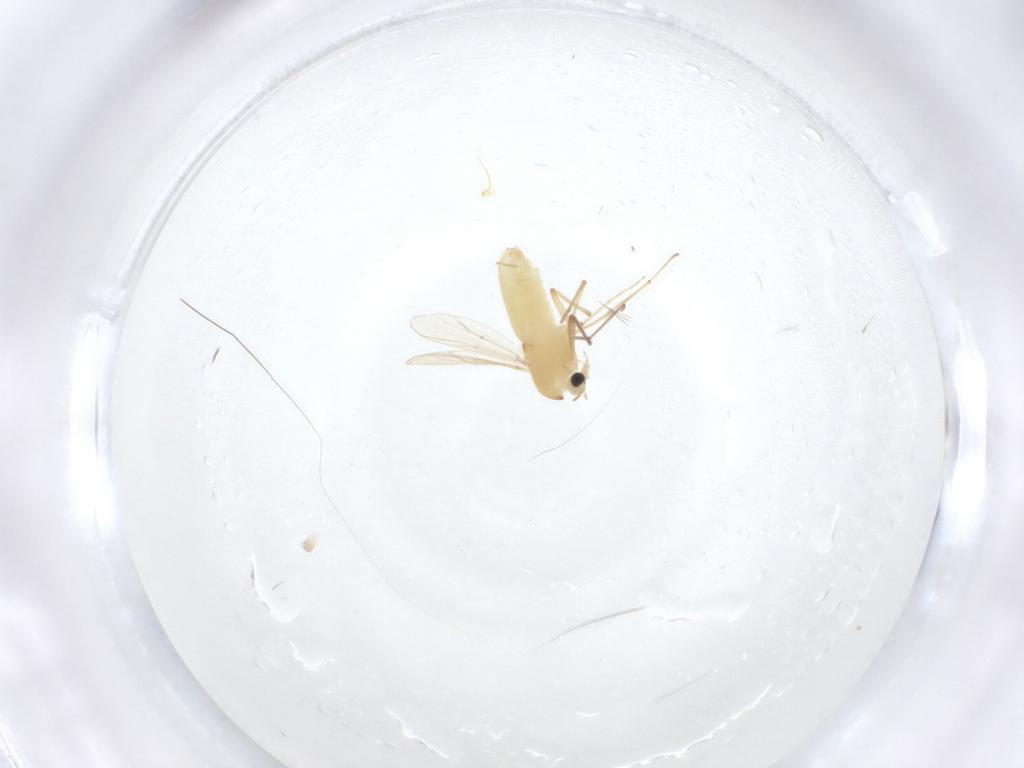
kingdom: Animalia
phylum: Arthropoda
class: Insecta
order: Diptera
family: Chironomidae
